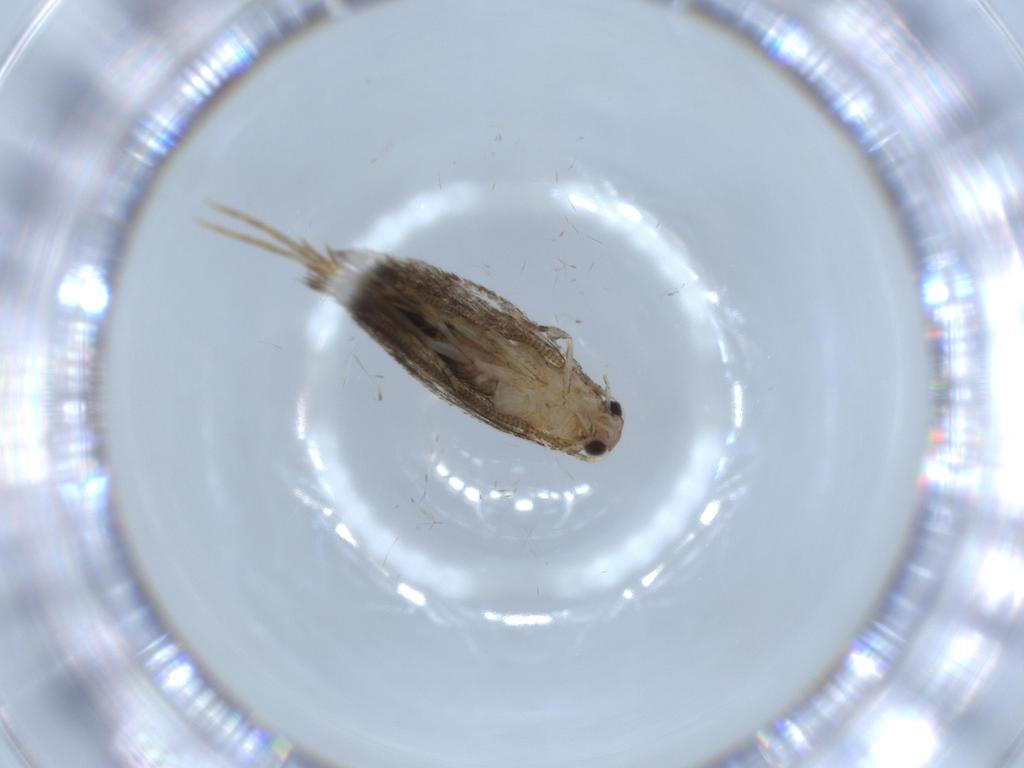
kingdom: Animalia
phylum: Arthropoda
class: Insecta
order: Lepidoptera
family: Tineidae
